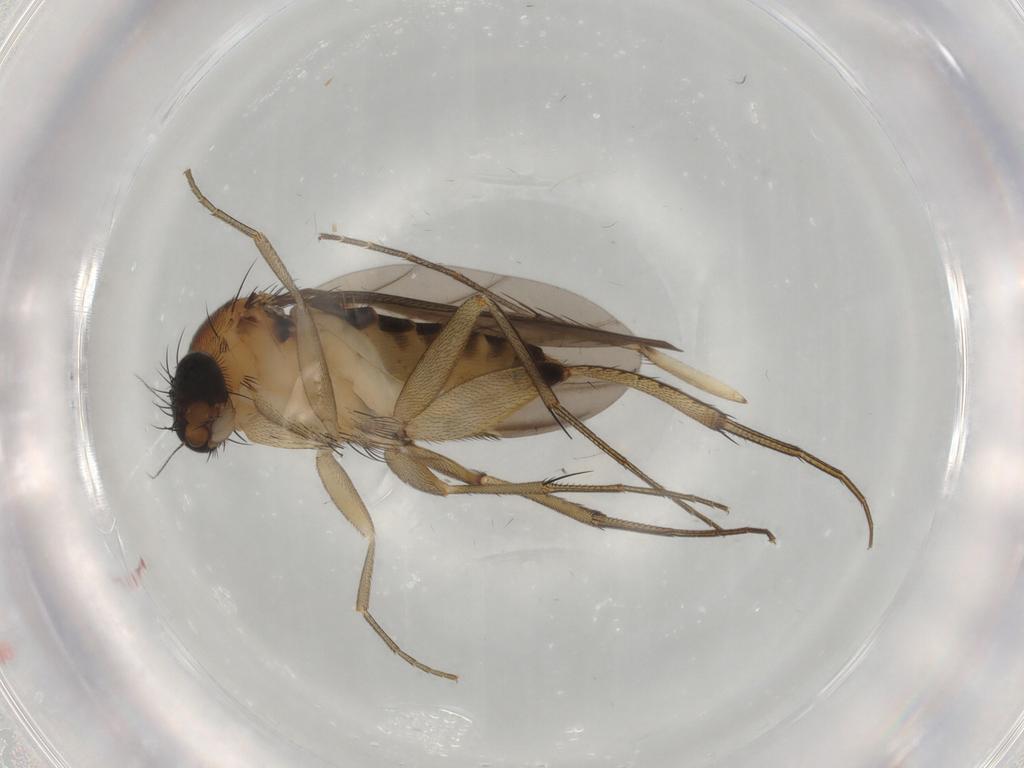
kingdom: Animalia
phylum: Arthropoda
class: Insecta
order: Diptera
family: Phoridae
